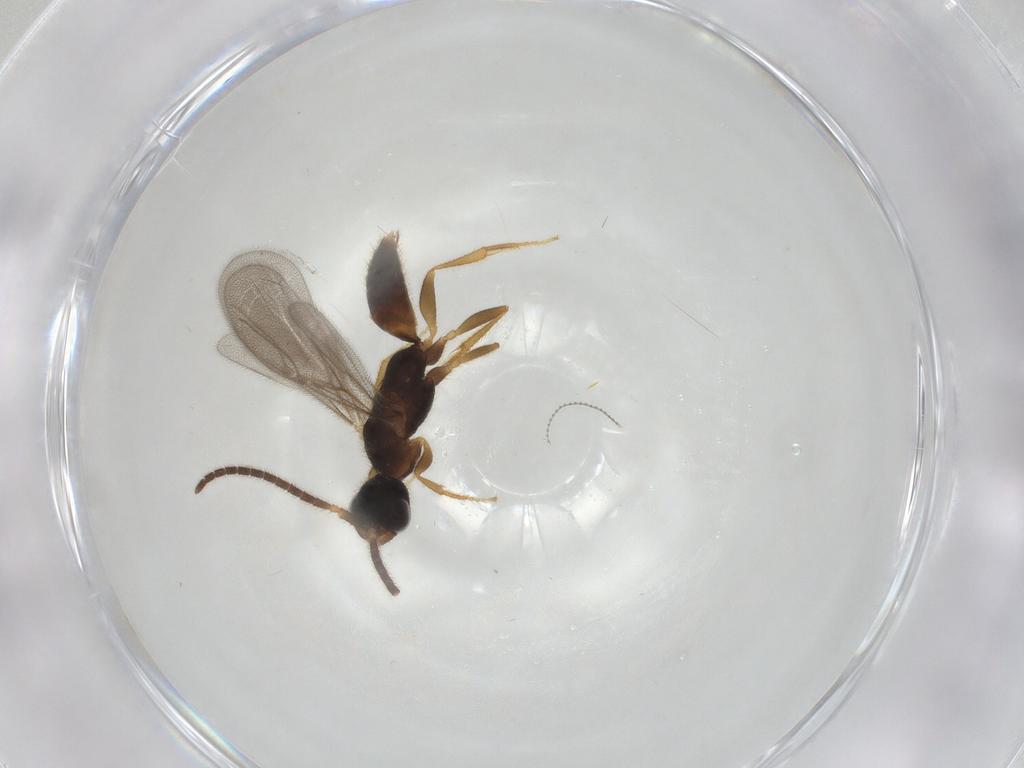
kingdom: Animalia
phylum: Arthropoda
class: Insecta
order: Hymenoptera
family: Bethylidae
